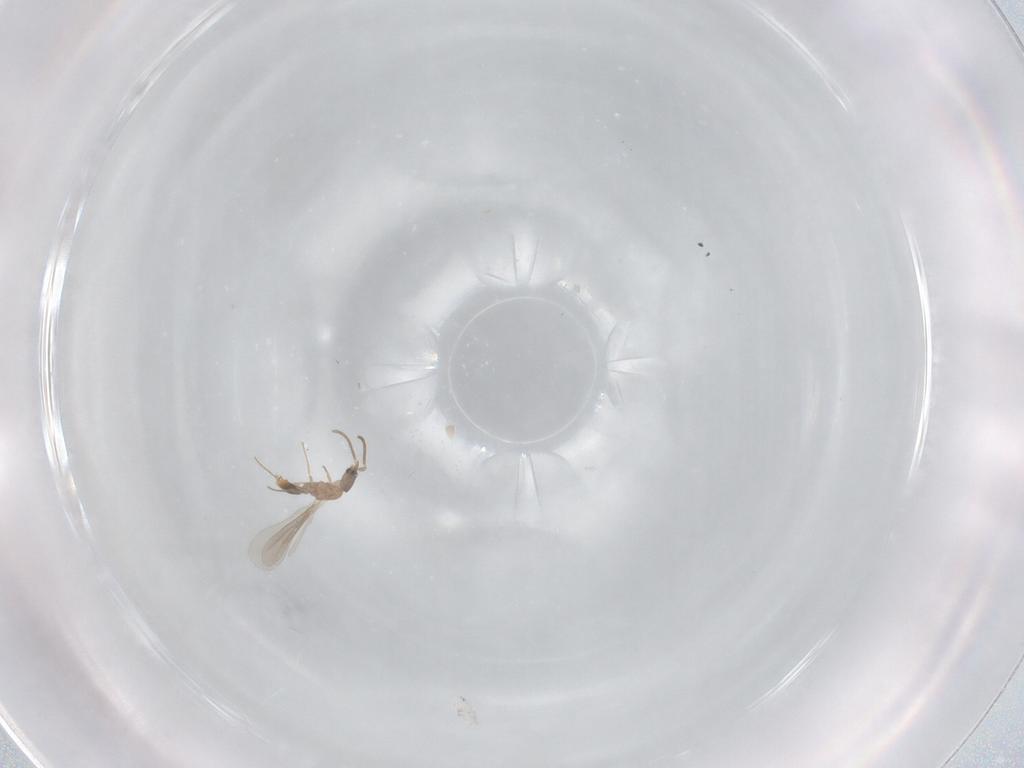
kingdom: Animalia
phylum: Arthropoda
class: Insecta
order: Hymenoptera
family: Formicidae
